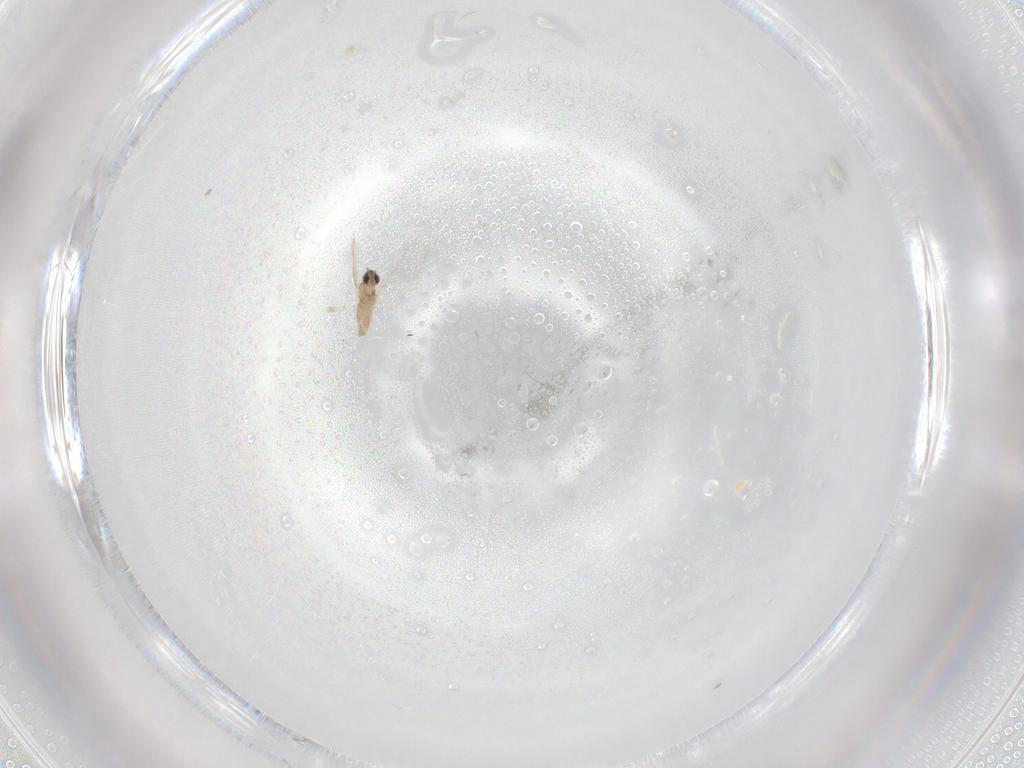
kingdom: Animalia
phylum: Arthropoda
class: Insecta
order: Diptera
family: Cecidomyiidae
